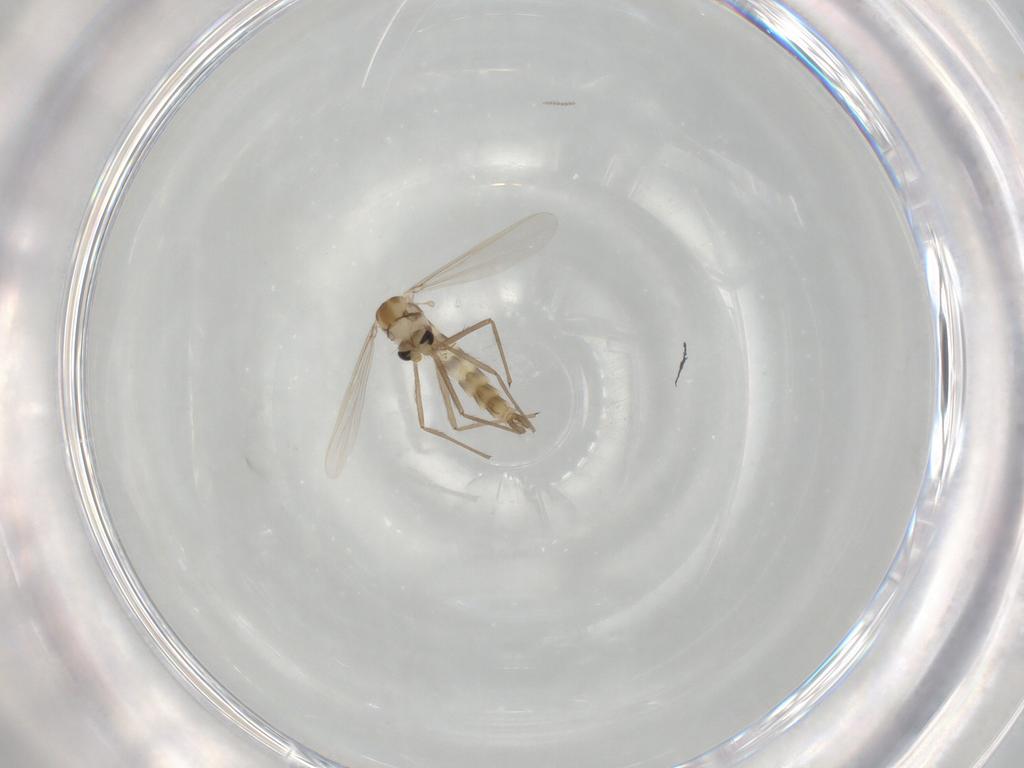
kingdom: Animalia
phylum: Arthropoda
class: Insecta
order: Diptera
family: Psychodidae
